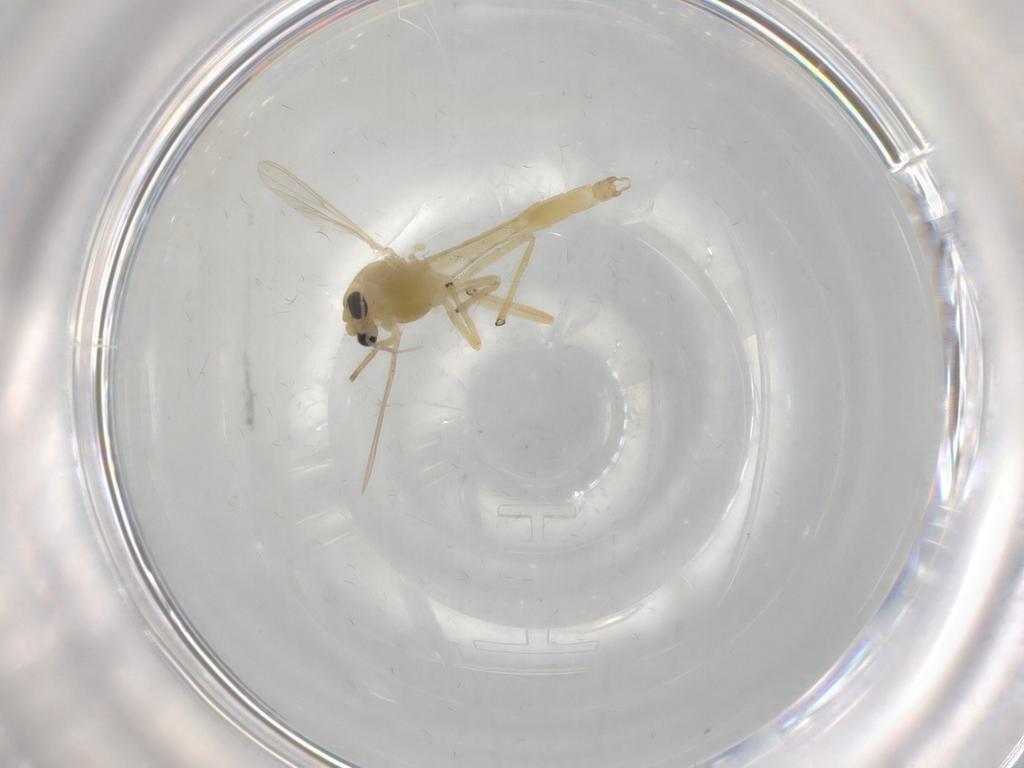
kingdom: Animalia
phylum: Arthropoda
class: Insecta
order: Diptera
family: Chironomidae
